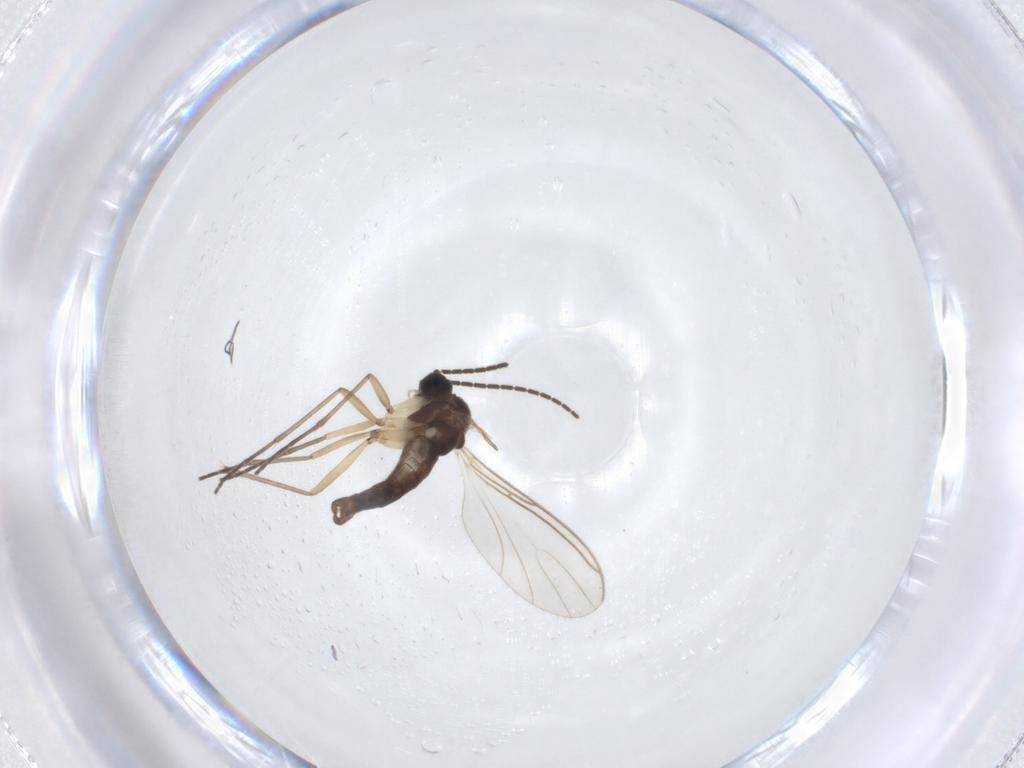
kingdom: Animalia
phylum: Arthropoda
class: Insecta
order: Diptera
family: Sciaridae
